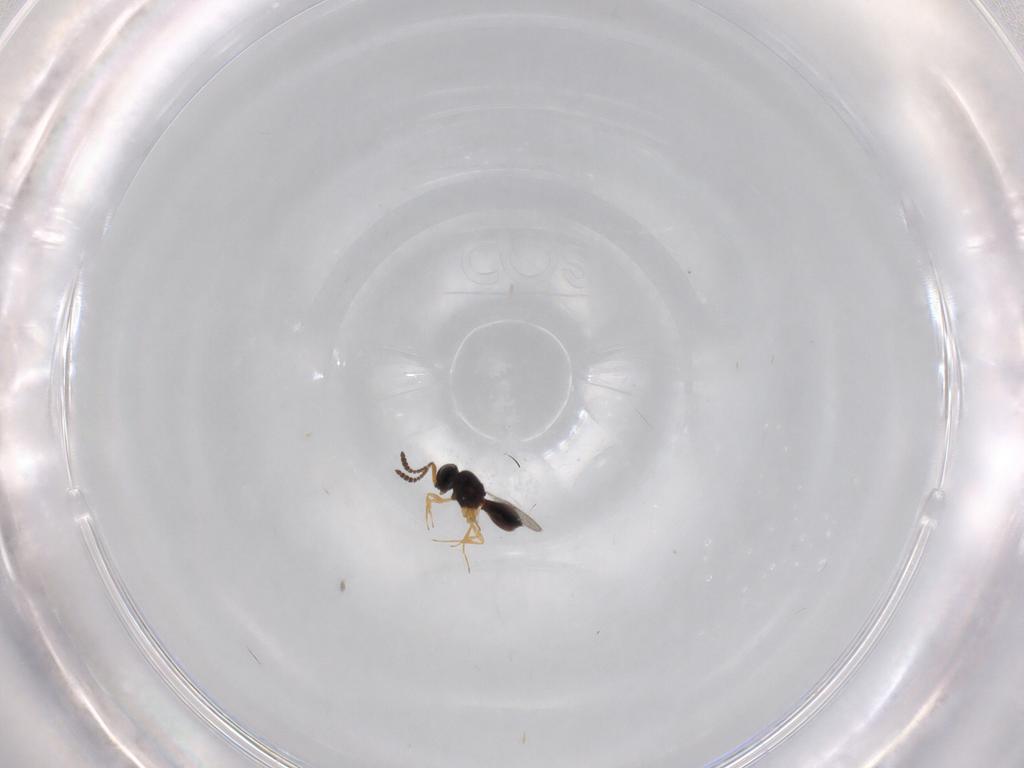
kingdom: Animalia
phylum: Arthropoda
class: Insecta
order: Hymenoptera
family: Scelionidae
